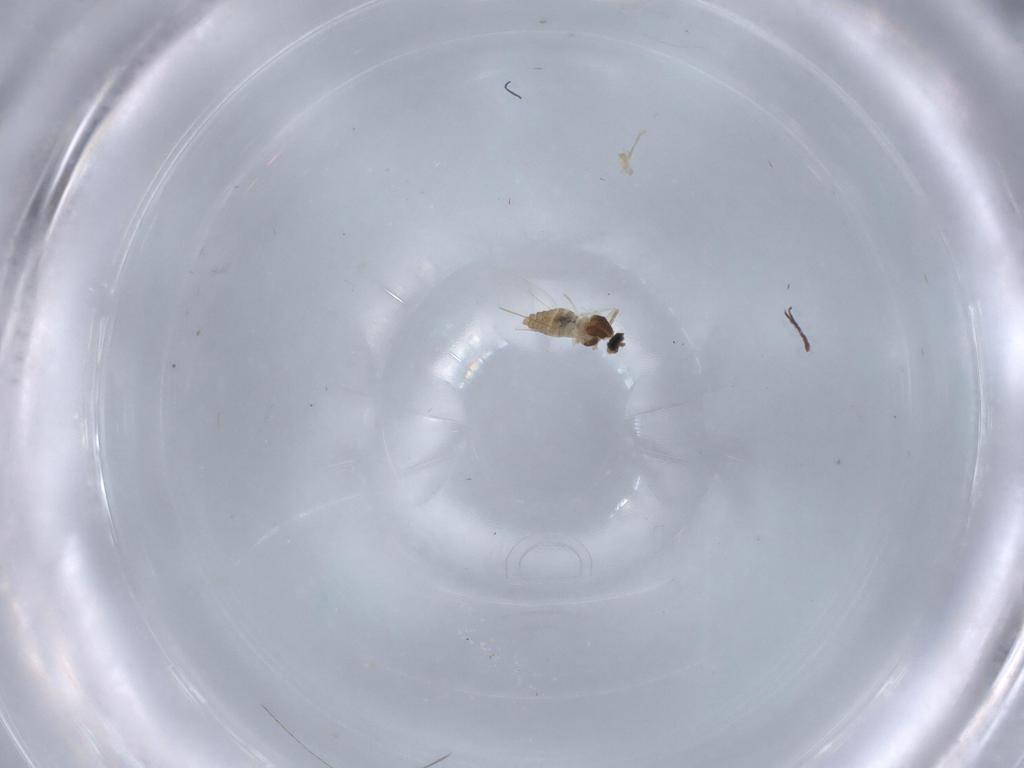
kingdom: Animalia
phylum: Arthropoda
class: Insecta
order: Diptera
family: Cecidomyiidae
